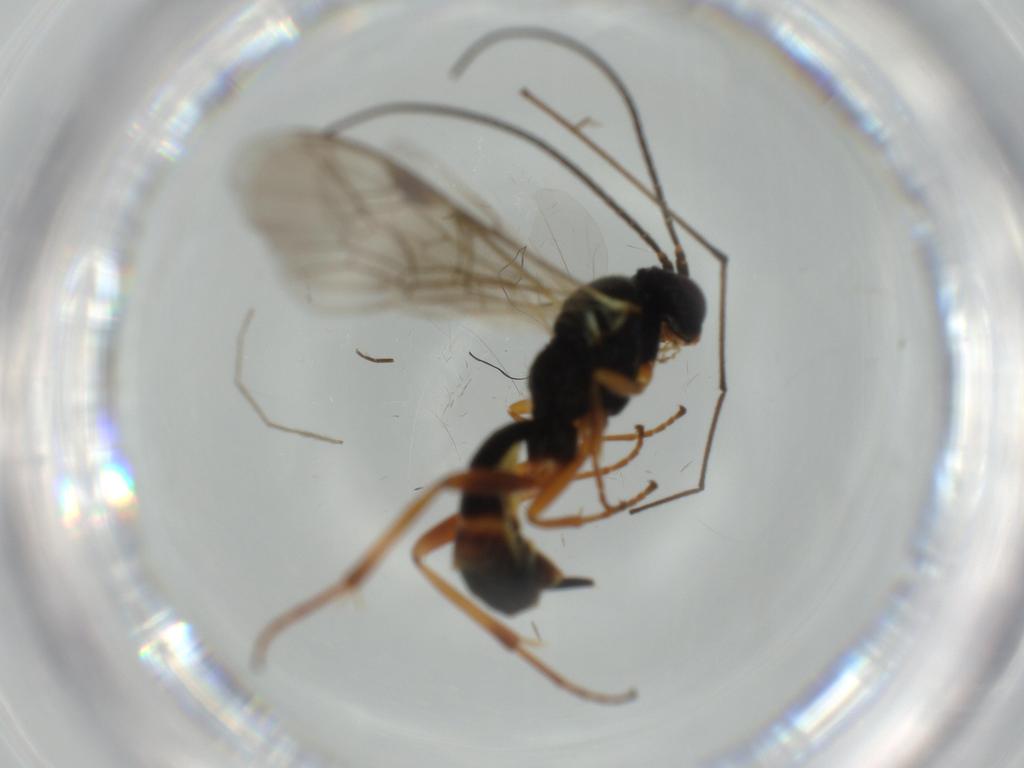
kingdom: Animalia
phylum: Arthropoda
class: Insecta
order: Hymenoptera
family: Ichneumonidae
